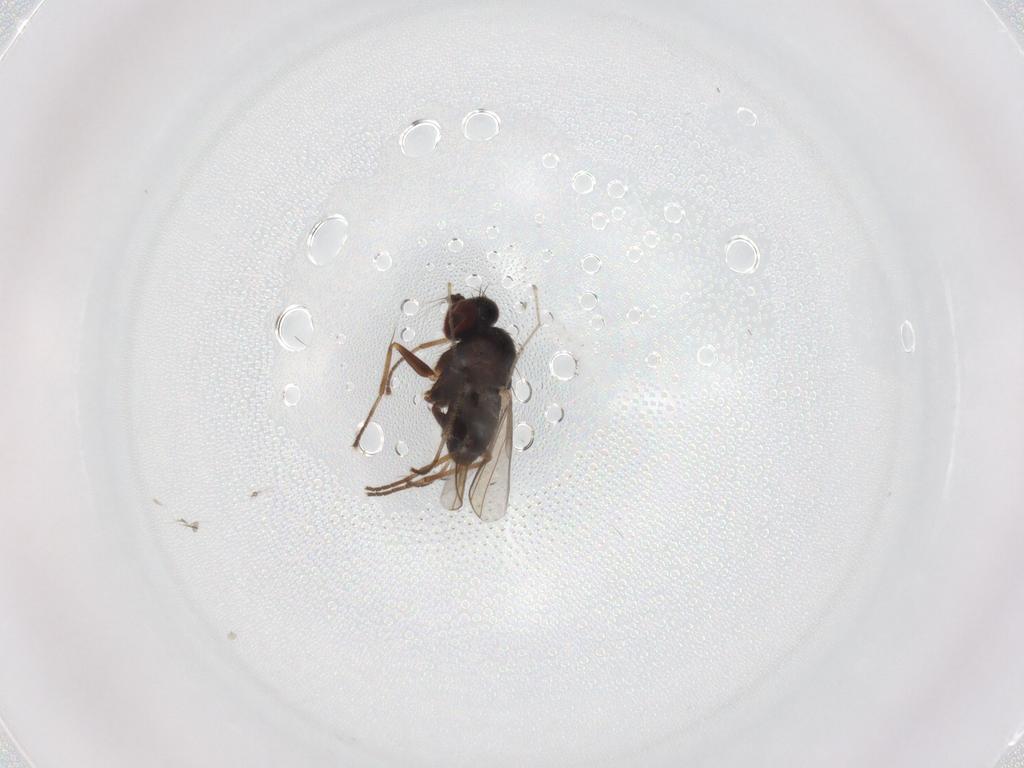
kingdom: Animalia
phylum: Arthropoda
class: Insecta
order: Diptera
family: Dolichopodidae
